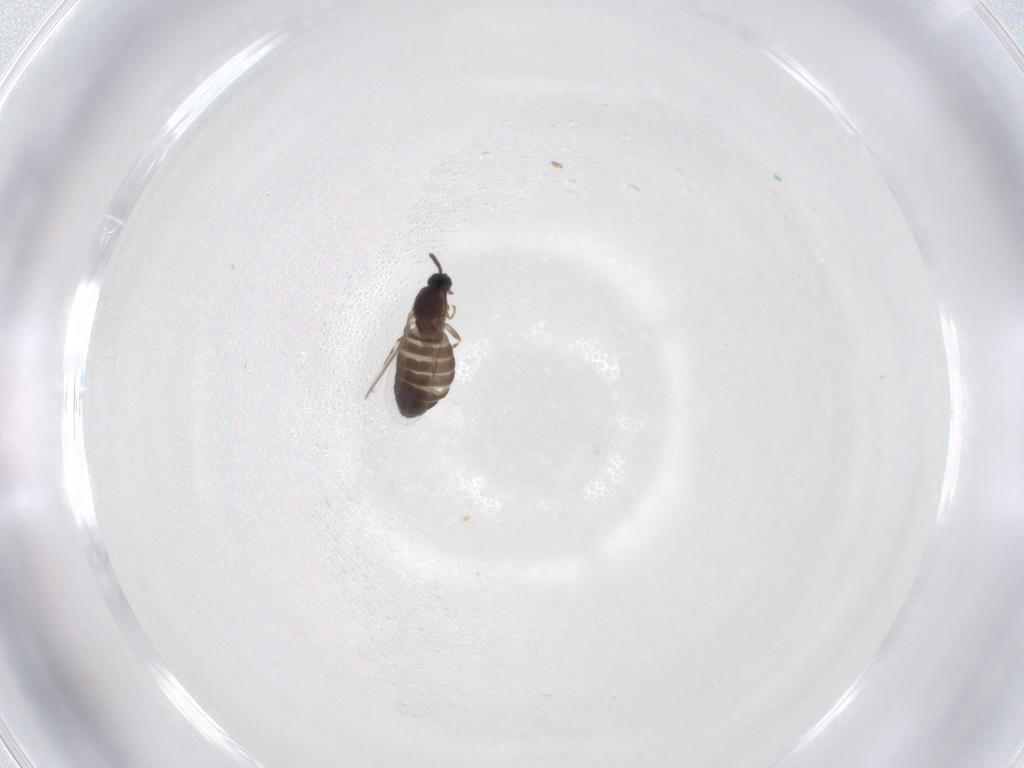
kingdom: Animalia
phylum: Arthropoda
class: Insecta
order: Diptera
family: Scatopsidae
